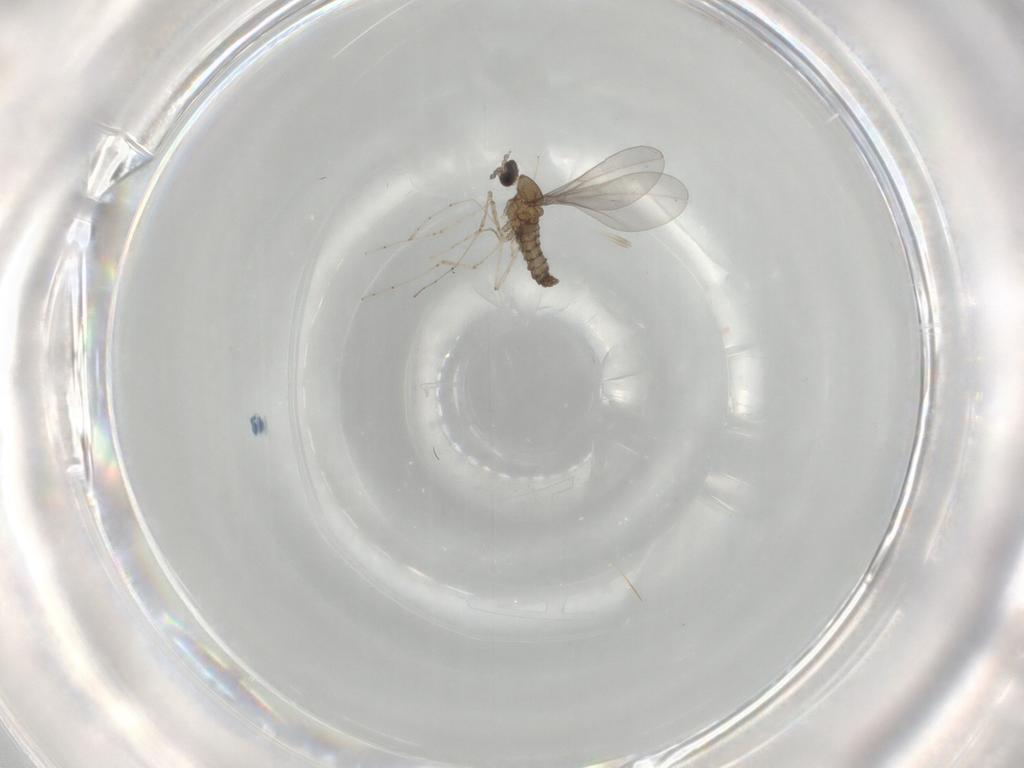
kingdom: Animalia
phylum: Arthropoda
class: Insecta
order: Diptera
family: Cecidomyiidae
